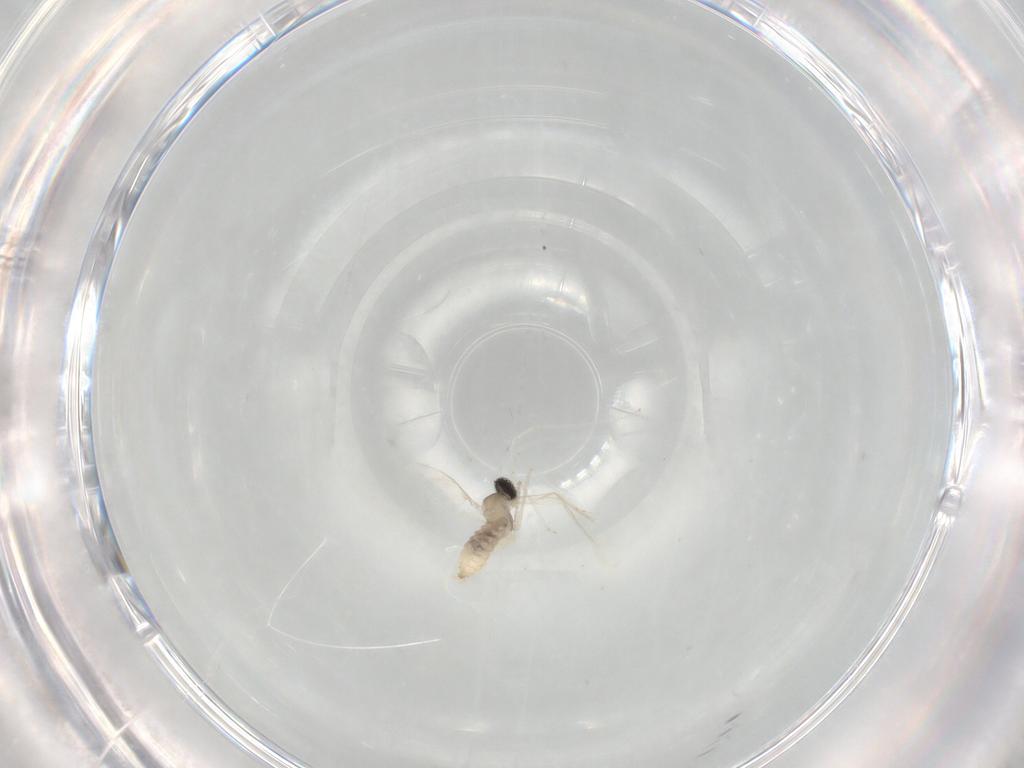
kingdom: Animalia
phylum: Arthropoda
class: Insecta
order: Diptera
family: Cecidomyiidae
